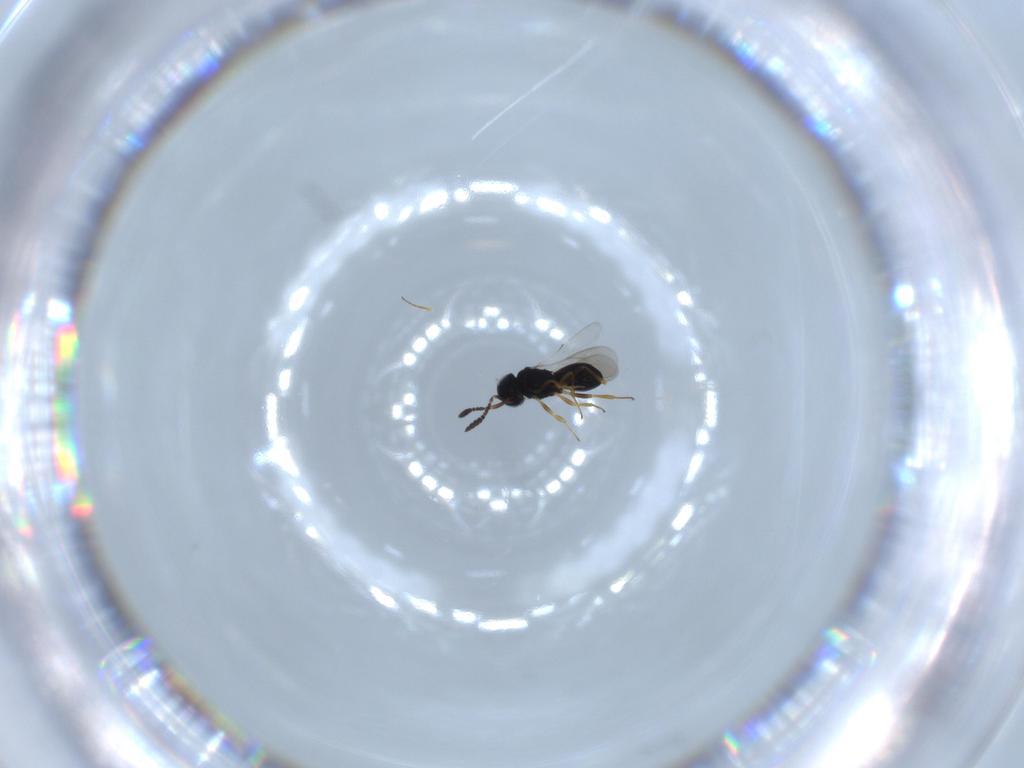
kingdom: Animalia
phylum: Arthropoda
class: Insecta
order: Hymenoptera
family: Scelionidae
